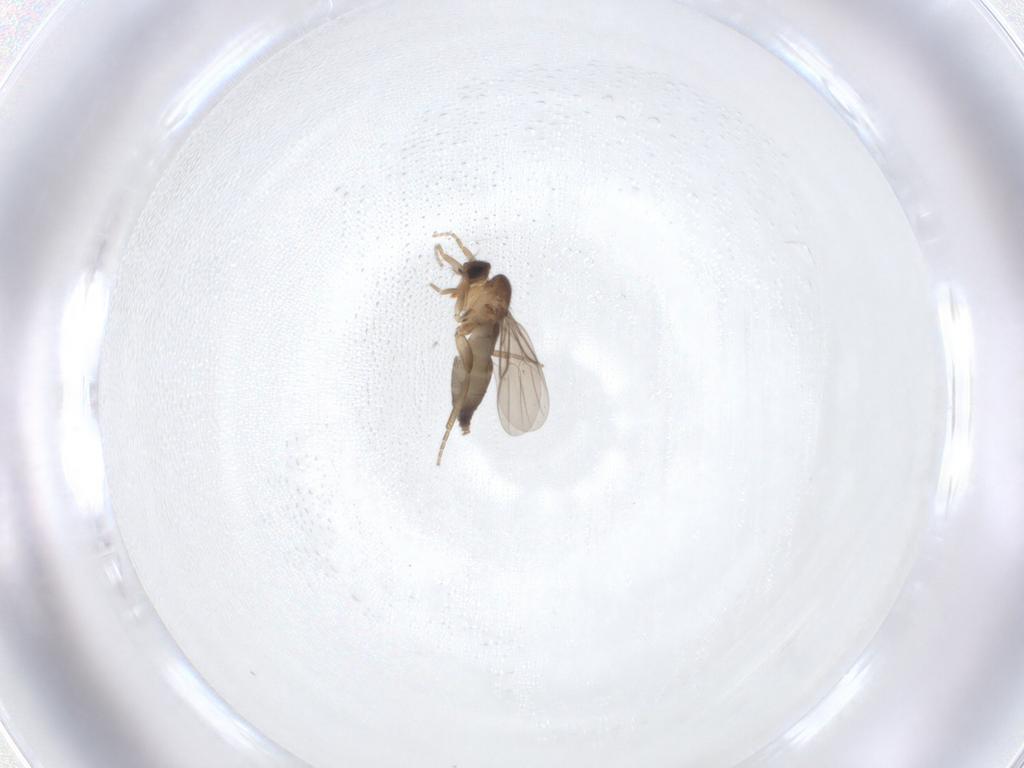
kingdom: Animalia
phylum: Arthropoda
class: Insecta
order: Diptera
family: Phoridae
